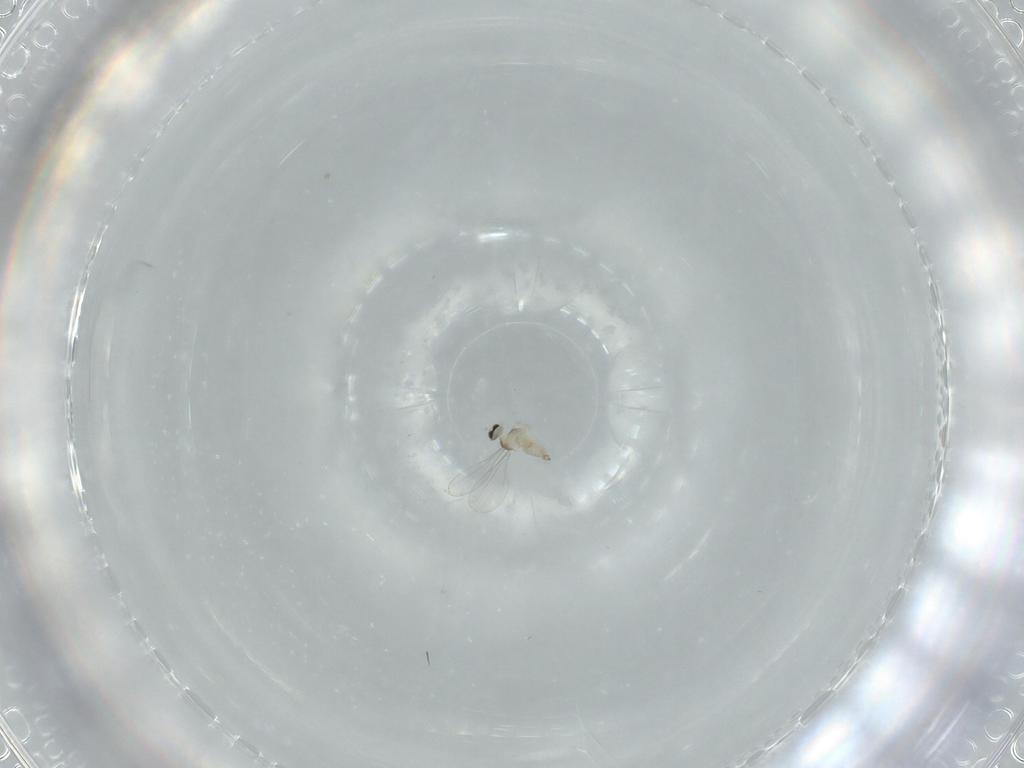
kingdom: Animalia
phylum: Arthropoda
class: Insecta
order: Diptera
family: Cecidomyiidae
